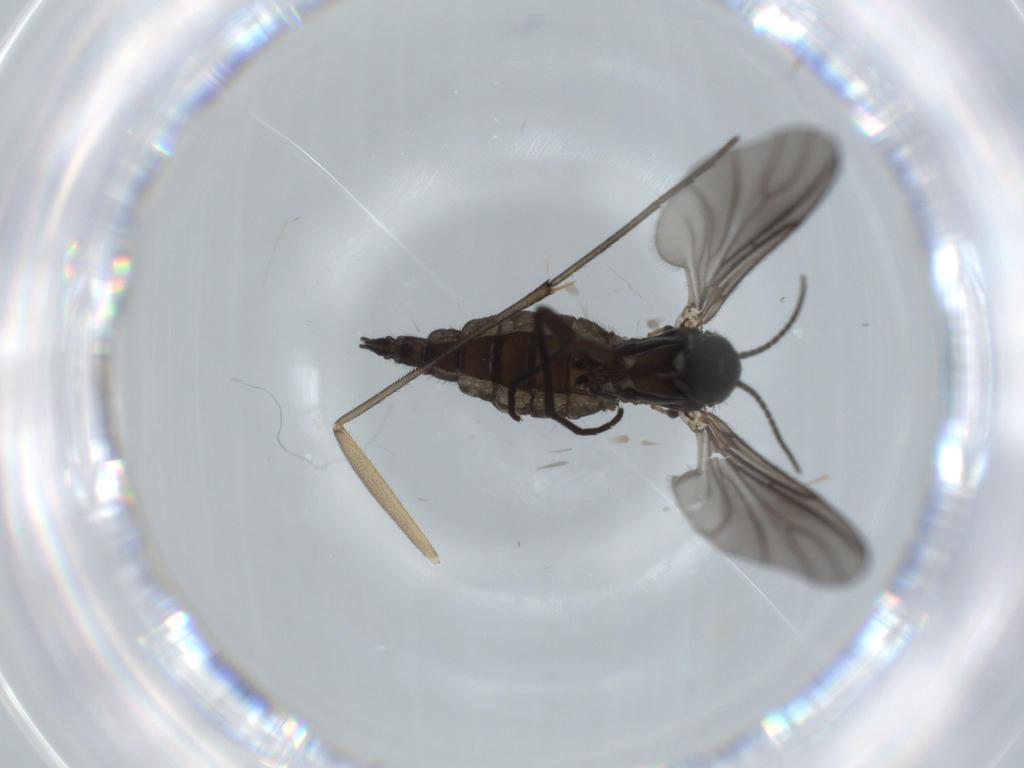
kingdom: Animalia
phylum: Arthropoda
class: Insecta
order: Diptera
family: Sciaridae
